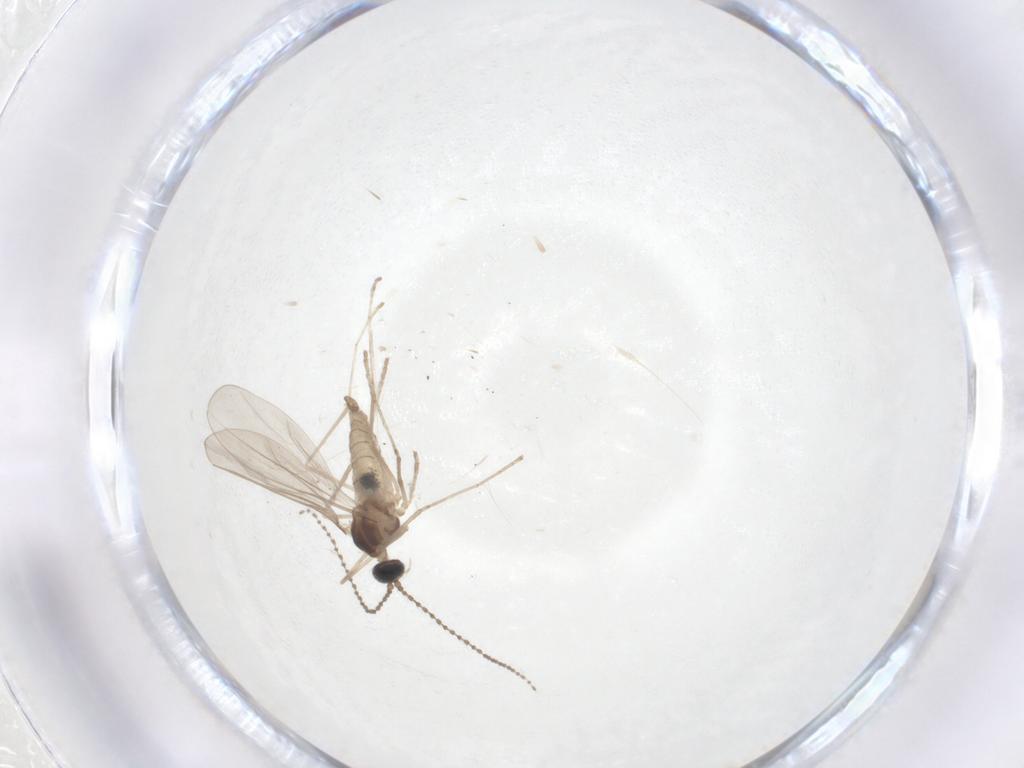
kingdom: Animalia
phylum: Arthropoda
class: Insecta
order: Diptera
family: Cecidomyiidae
